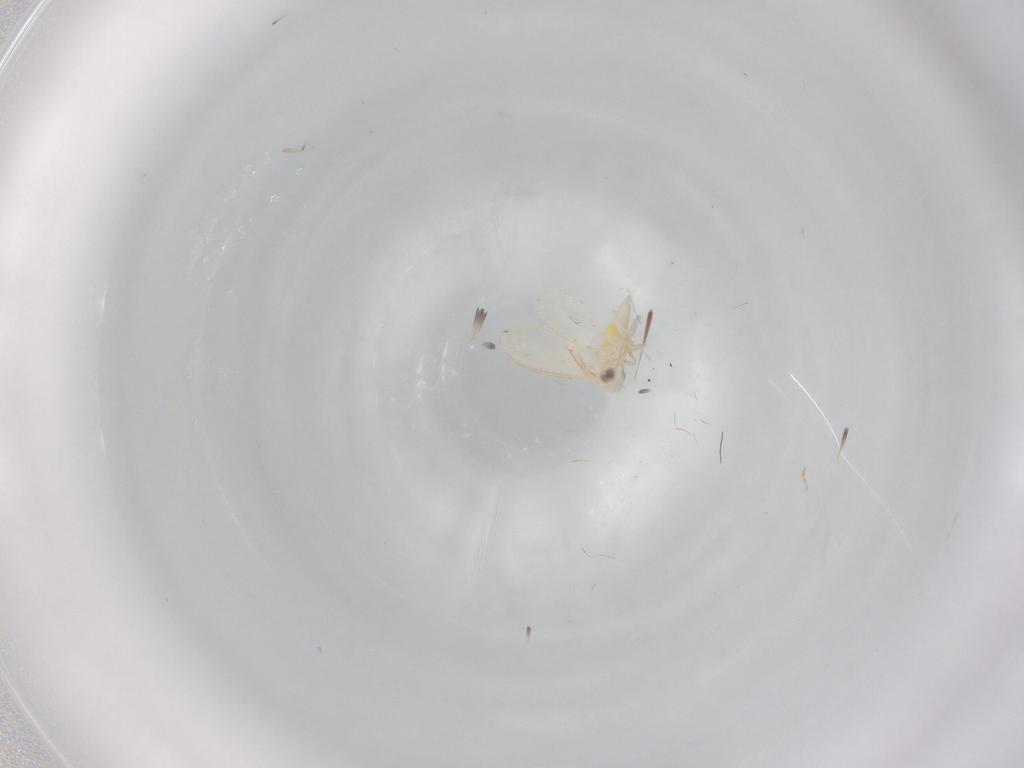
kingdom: Animalia
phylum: Arthropoda
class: Insecta
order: Hemiptera
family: Aleyrodidae
